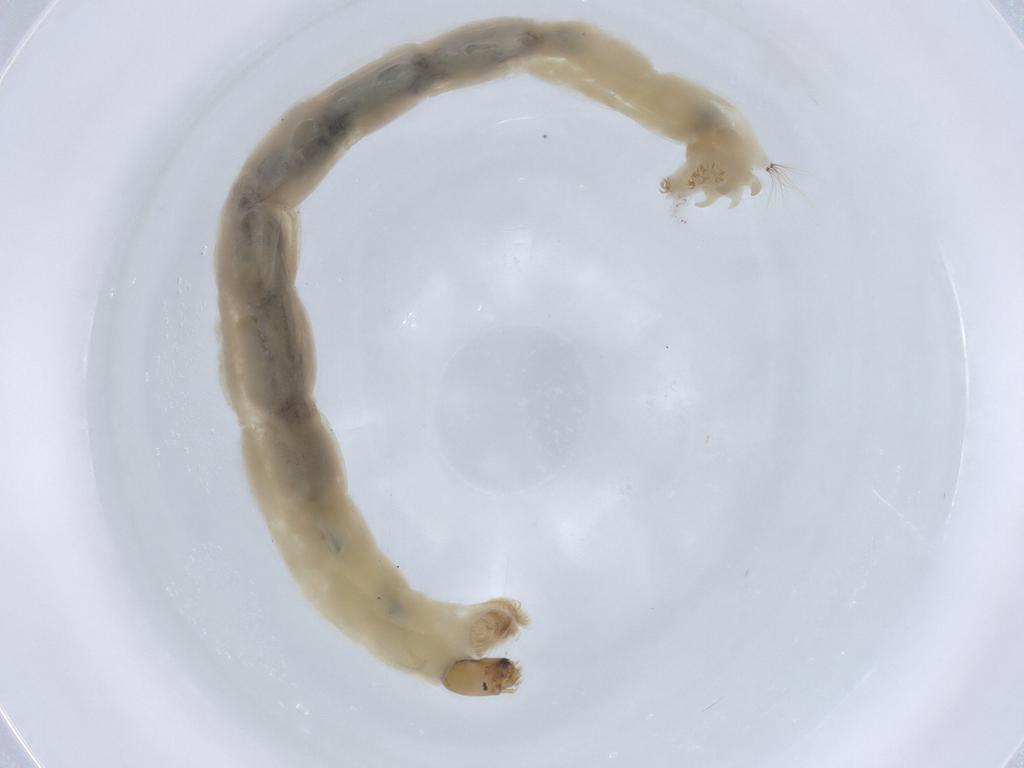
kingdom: Animalia
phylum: Arthropoda
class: Insecta
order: Diptera
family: Chironomidae
